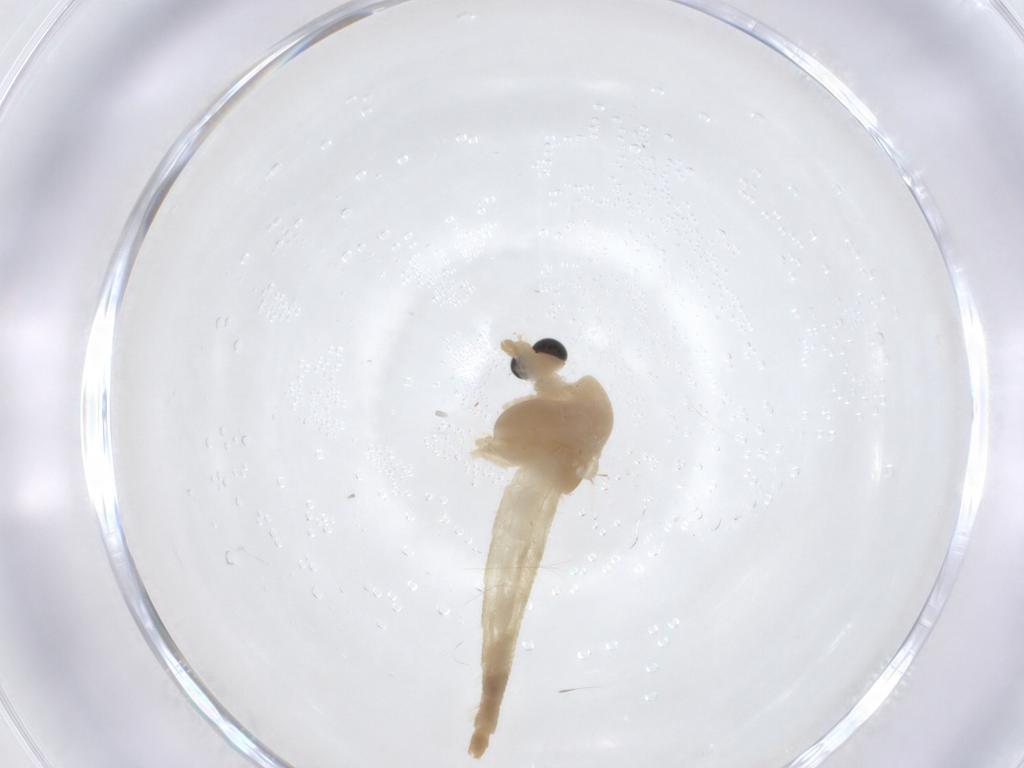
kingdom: Animalia
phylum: Arthropoda
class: Insecta
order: Diptera
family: Chironomidae
